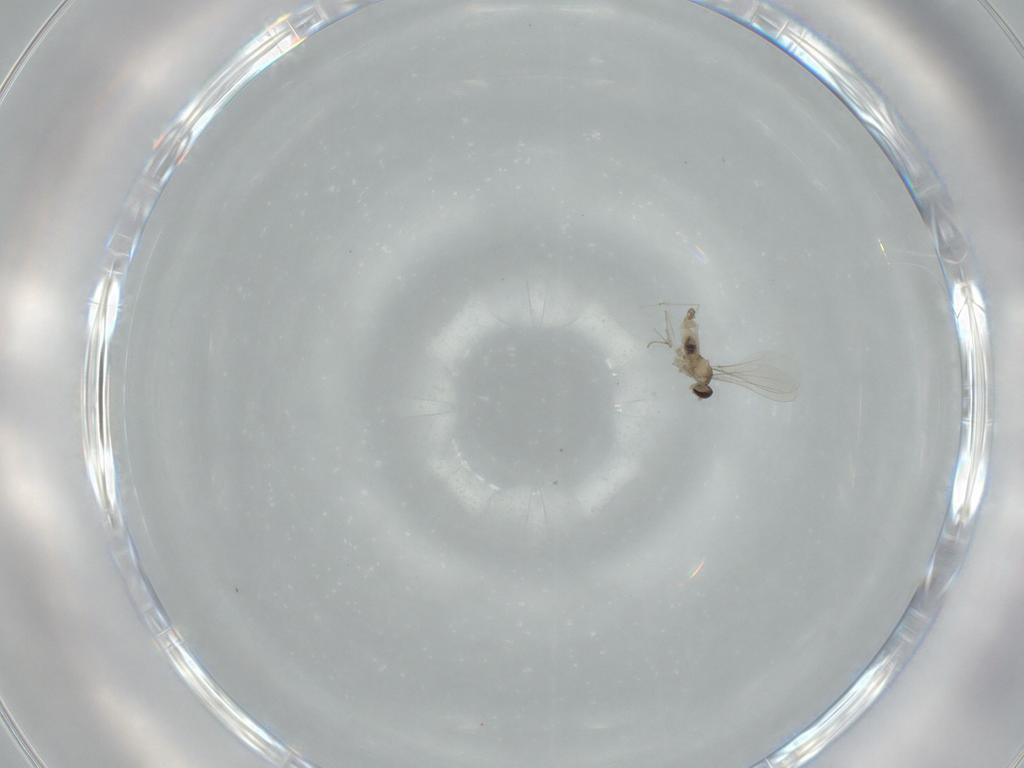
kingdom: Animalia
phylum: Arthropoda
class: Insecta
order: Diptera
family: Cecidomyiidae
